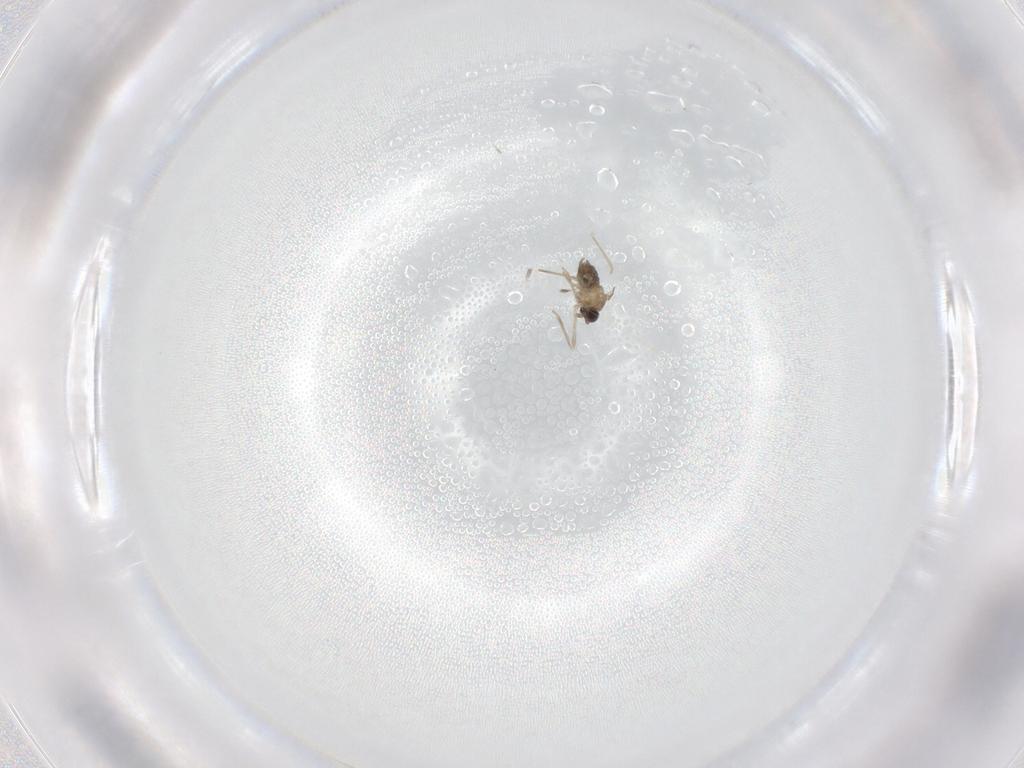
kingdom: Animalia
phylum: Arthropoda
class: Insecta
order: Diptera
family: Cecidomyiidae
